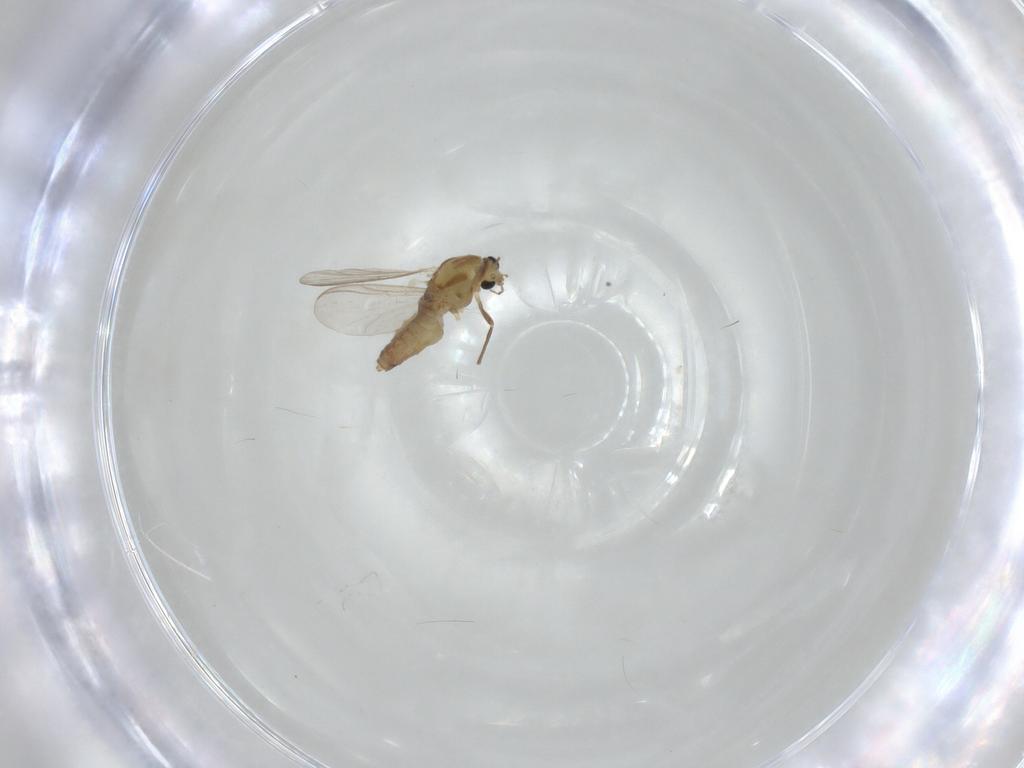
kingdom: Animalia
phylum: Arthropoda
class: Insecta
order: Diptera
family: Chironomidae
